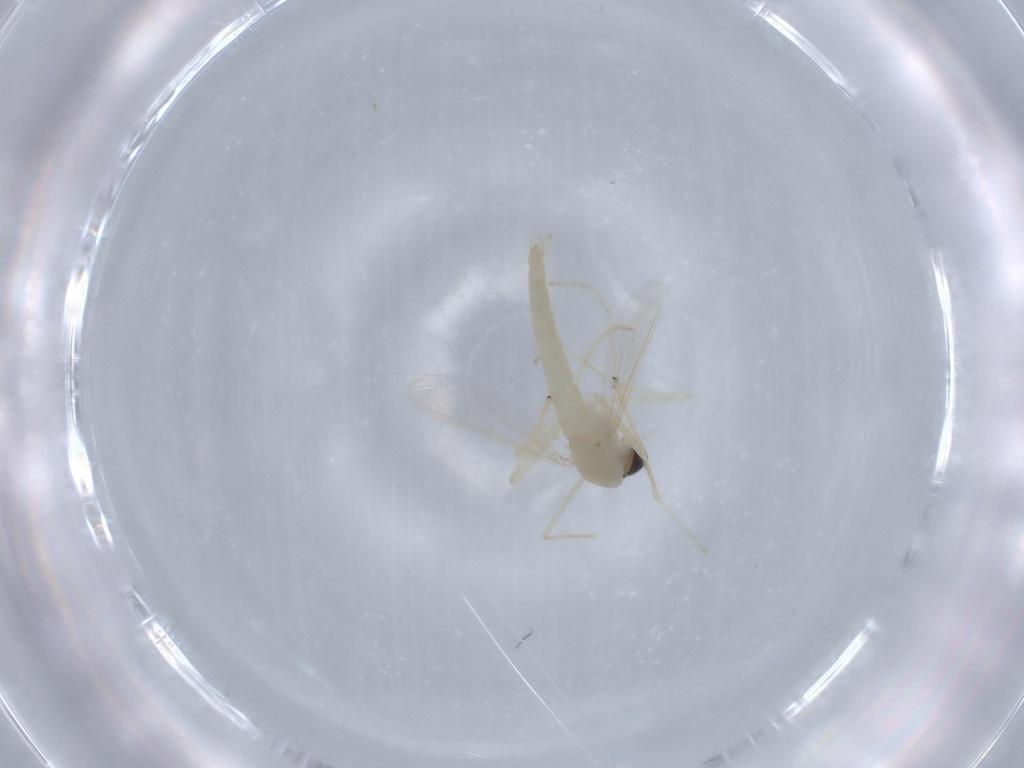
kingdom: Animalia
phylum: Arthropoda
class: Insecta
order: Diptera
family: Chironomidae
